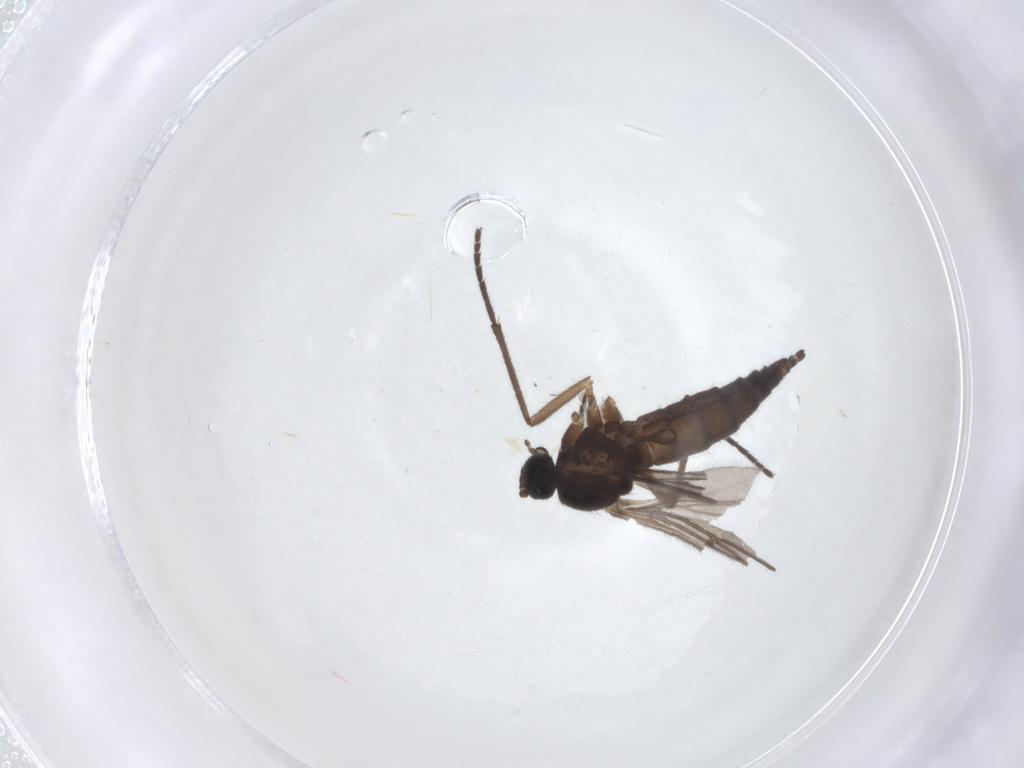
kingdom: Animalia
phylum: Arthropoda
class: Insecta
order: Diptera
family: Sciaridae
